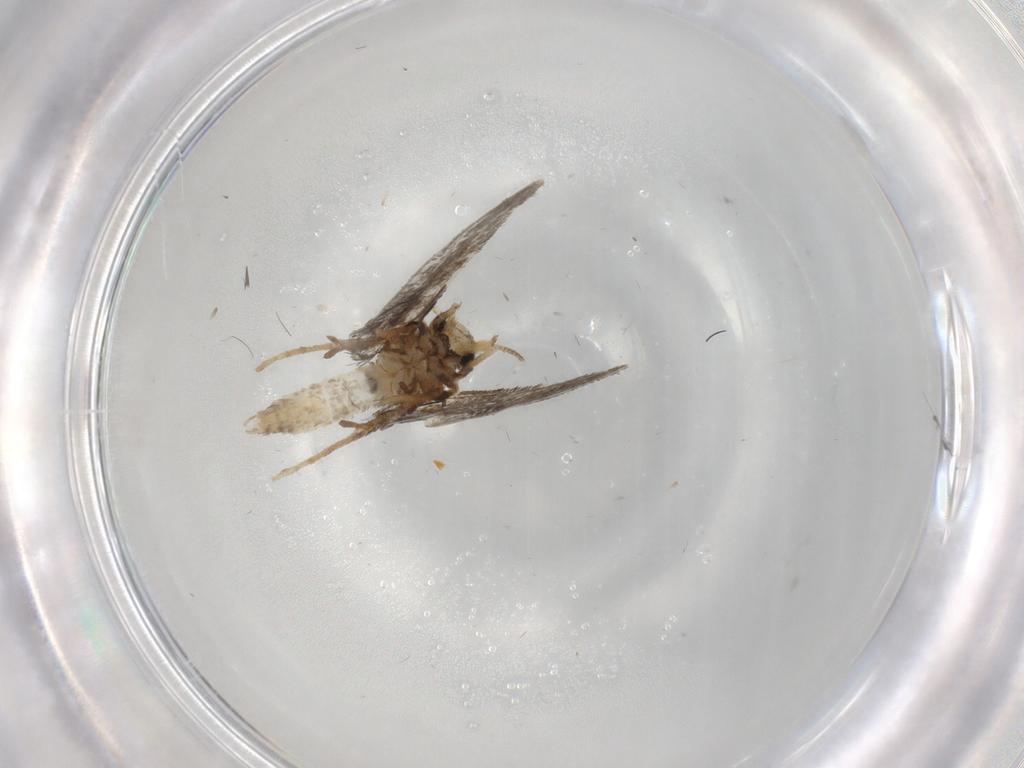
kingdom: Animalia
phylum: Arthropoda
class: Insecta
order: Lepidoptera
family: Psychidae
